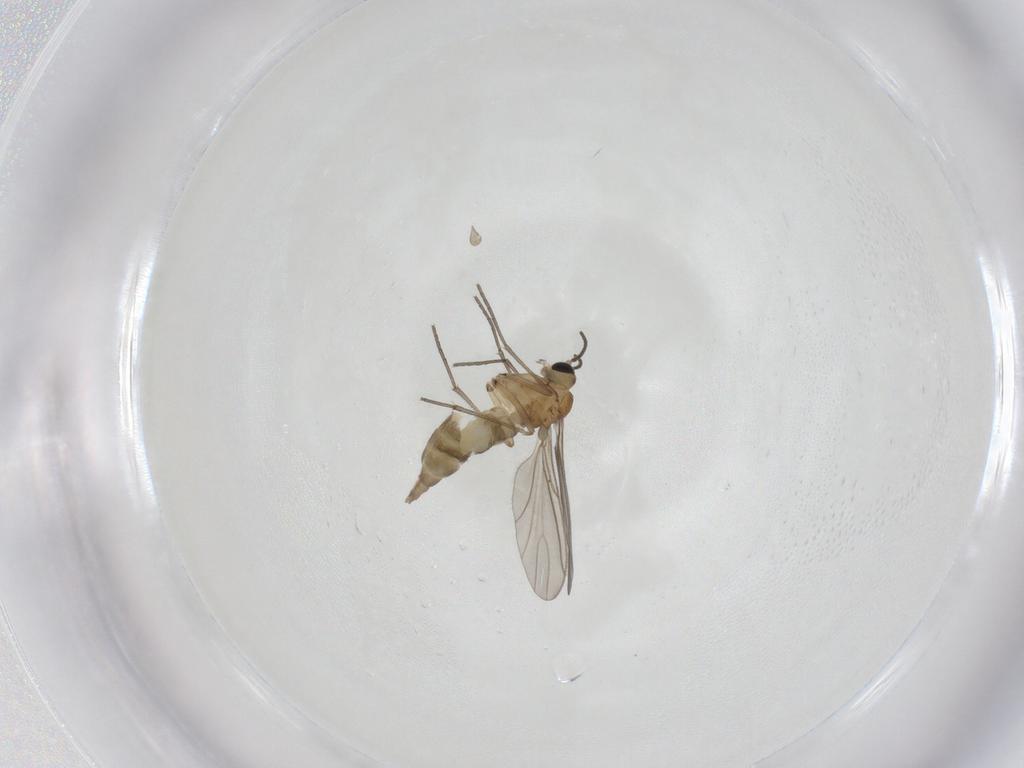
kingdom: Animalia
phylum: Arthropoda
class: Insecta
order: Diptera
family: Sciaridae
